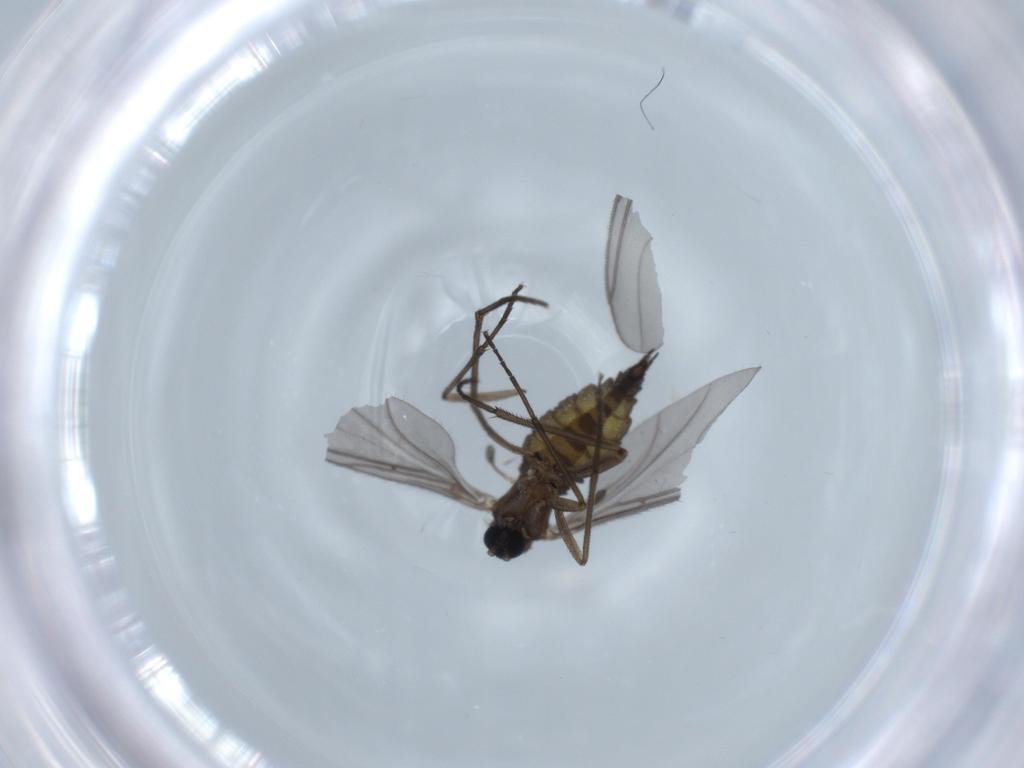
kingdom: Animalia
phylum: Arthropoda
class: Insecta
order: Diptera
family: Sciaridae
